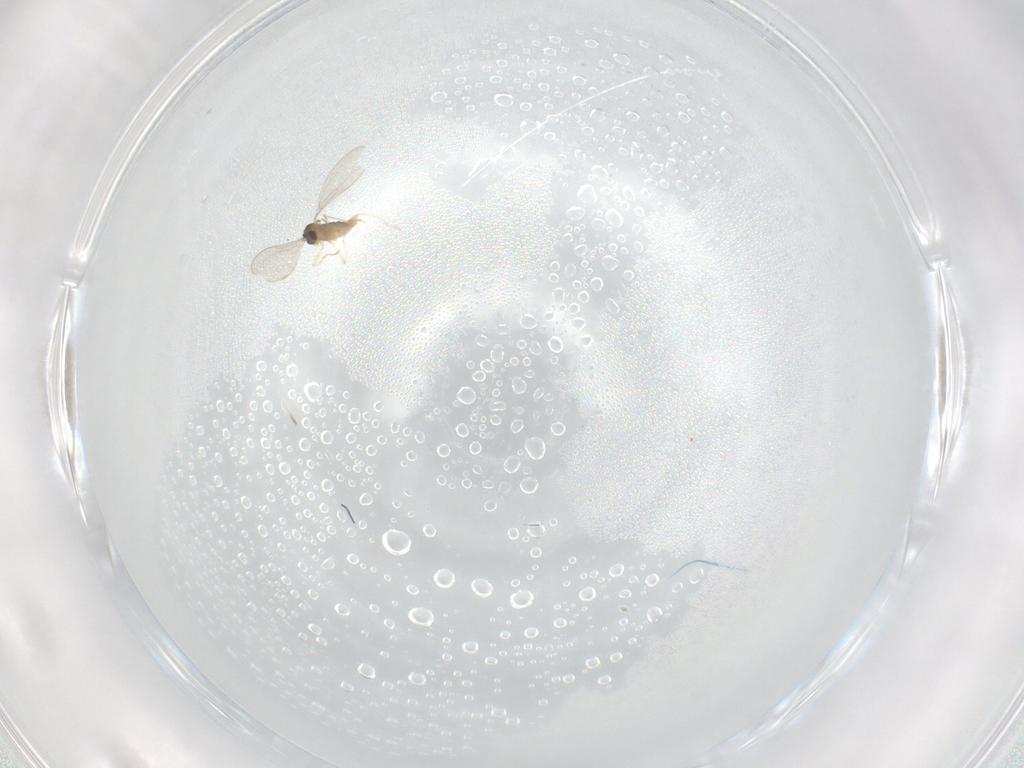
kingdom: Animalia
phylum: Arthropoda
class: Insecta
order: Diptera
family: Cecidomyiidae
